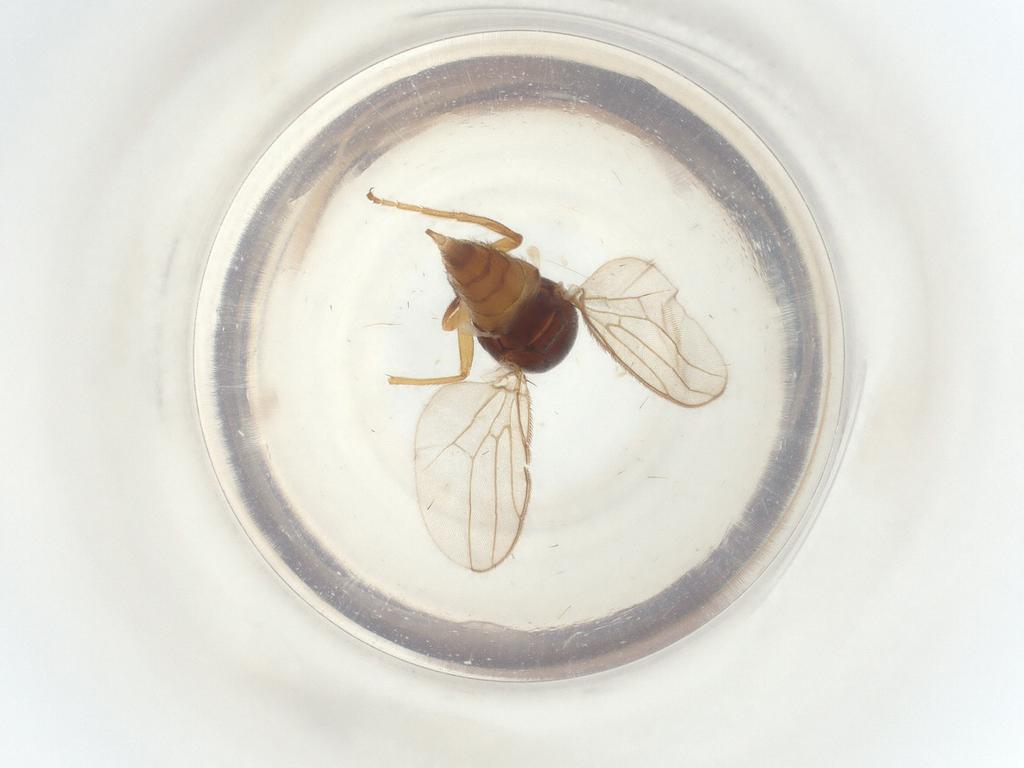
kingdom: Animalia
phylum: Arthropoda
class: Insecta
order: Diptera
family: Chloropidae
